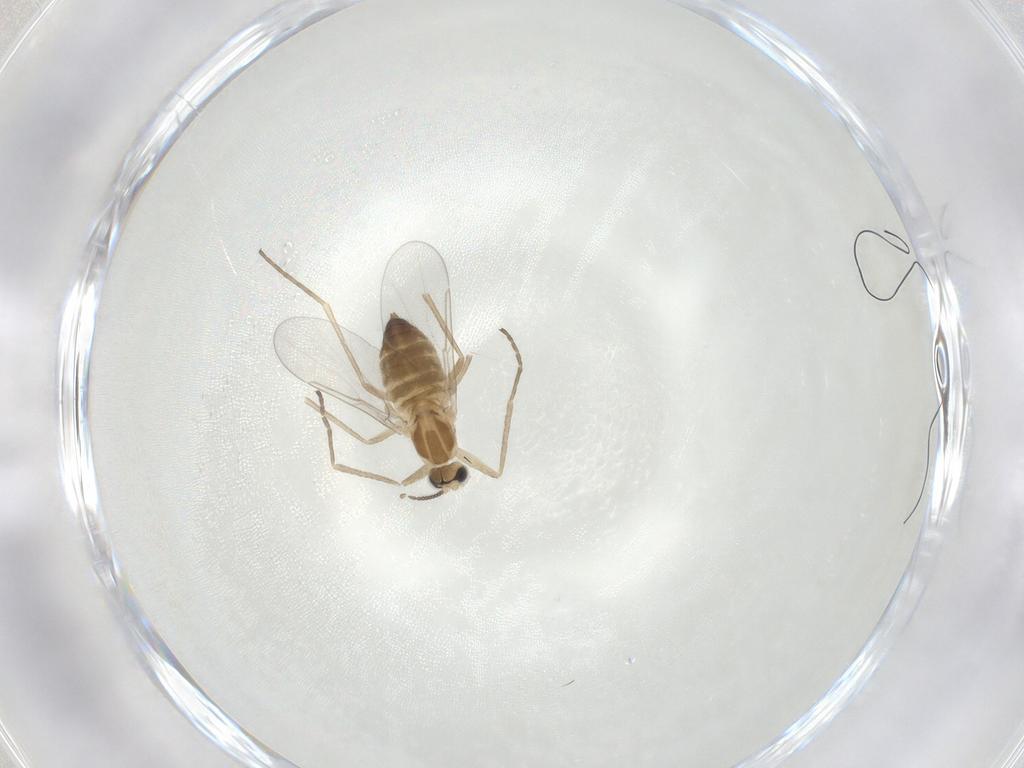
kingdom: Animalia
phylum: Arthropoda
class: Insecta
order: Diptera
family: Cecidomyiidae
